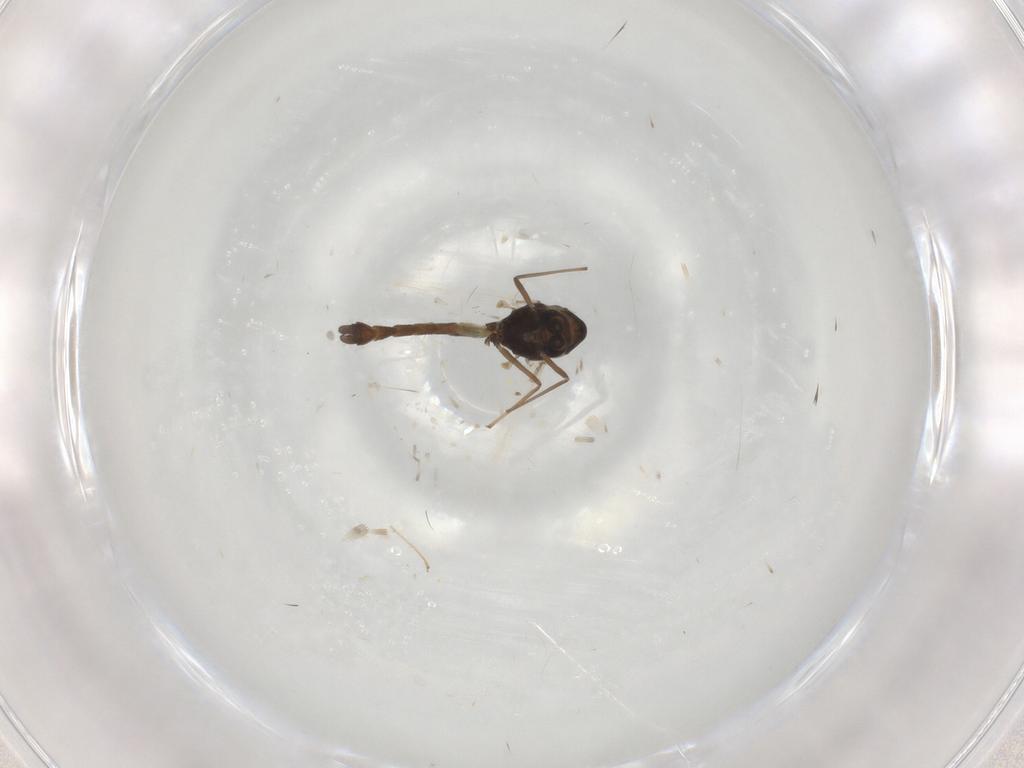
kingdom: Animalia
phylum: Arthropoda
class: Insecta
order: Diptera
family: Chironomidae
